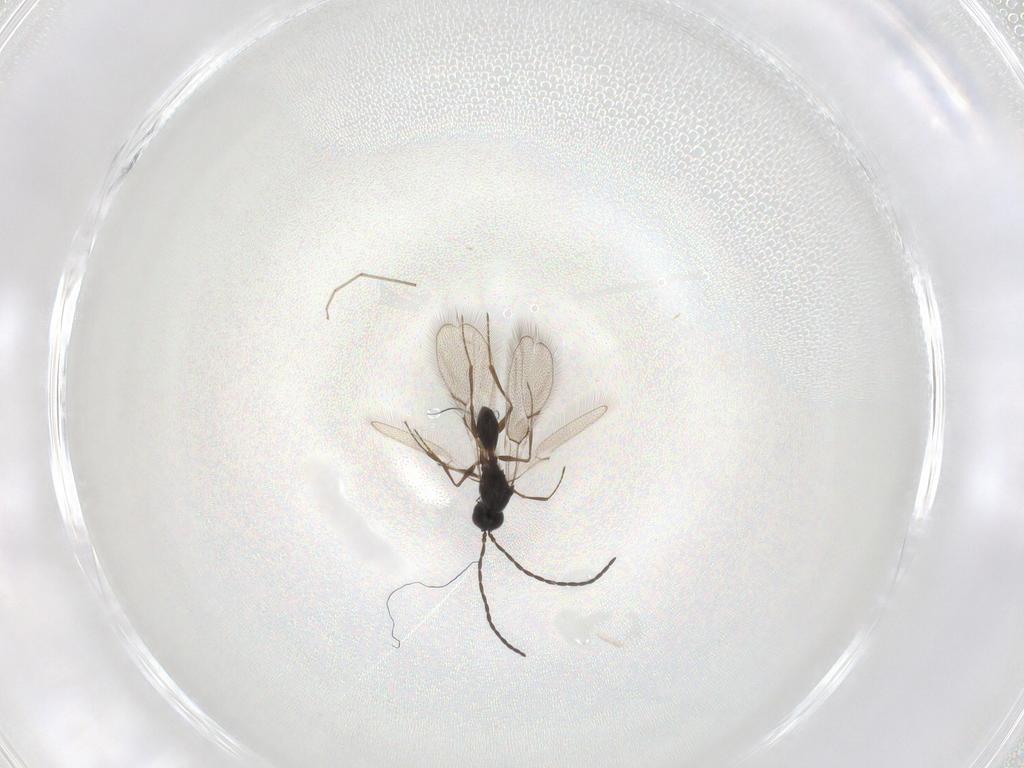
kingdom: Animalia
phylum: Arthropoda
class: Insecta
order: Hymenoptera
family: Figitidae
